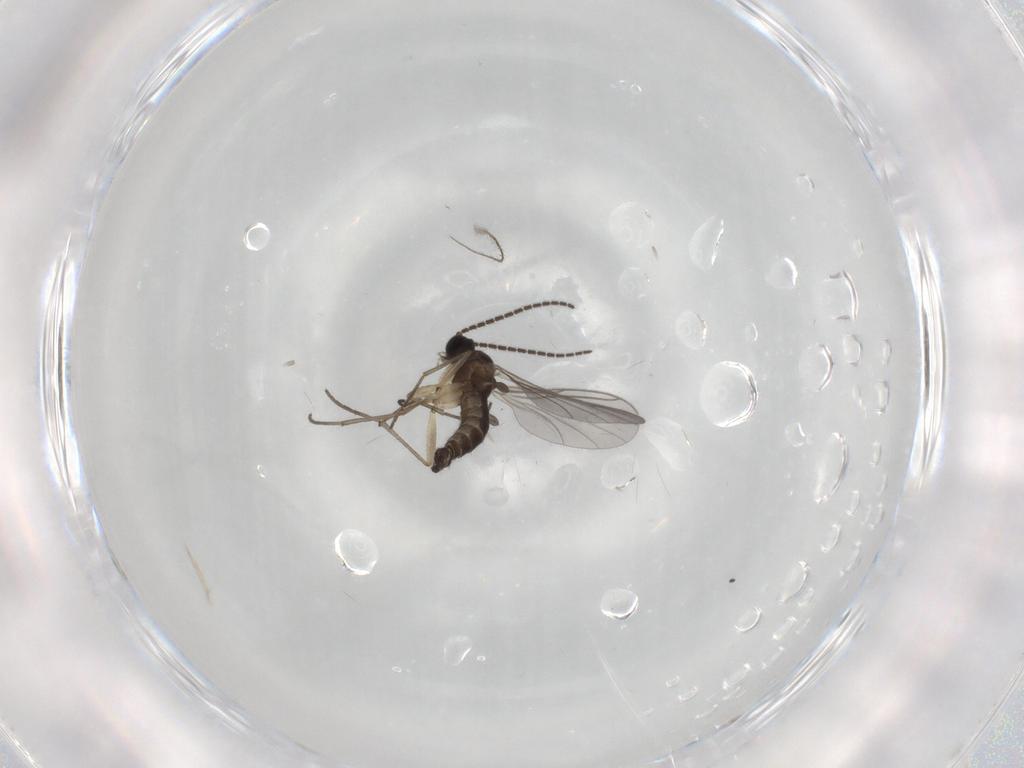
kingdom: Animalia
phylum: Arthropoda
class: Insecta
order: Diptera
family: Sciaridae
